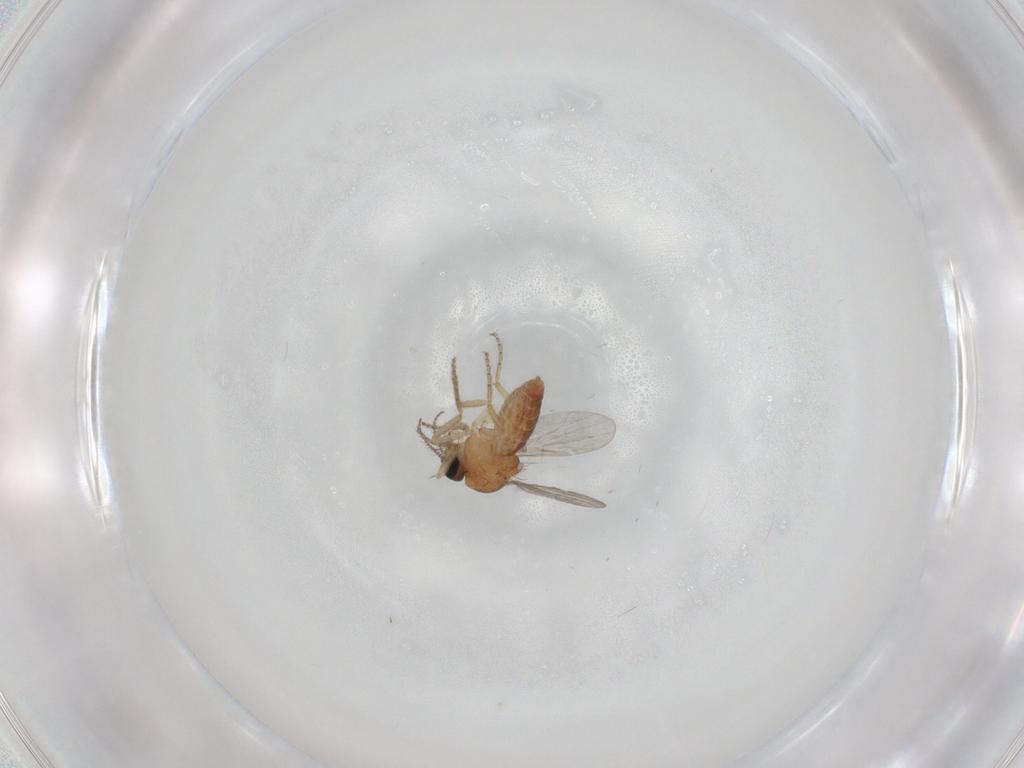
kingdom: Animalia
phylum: Arthropoda
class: Insecta
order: Diptera
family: Ceratopogonidae
